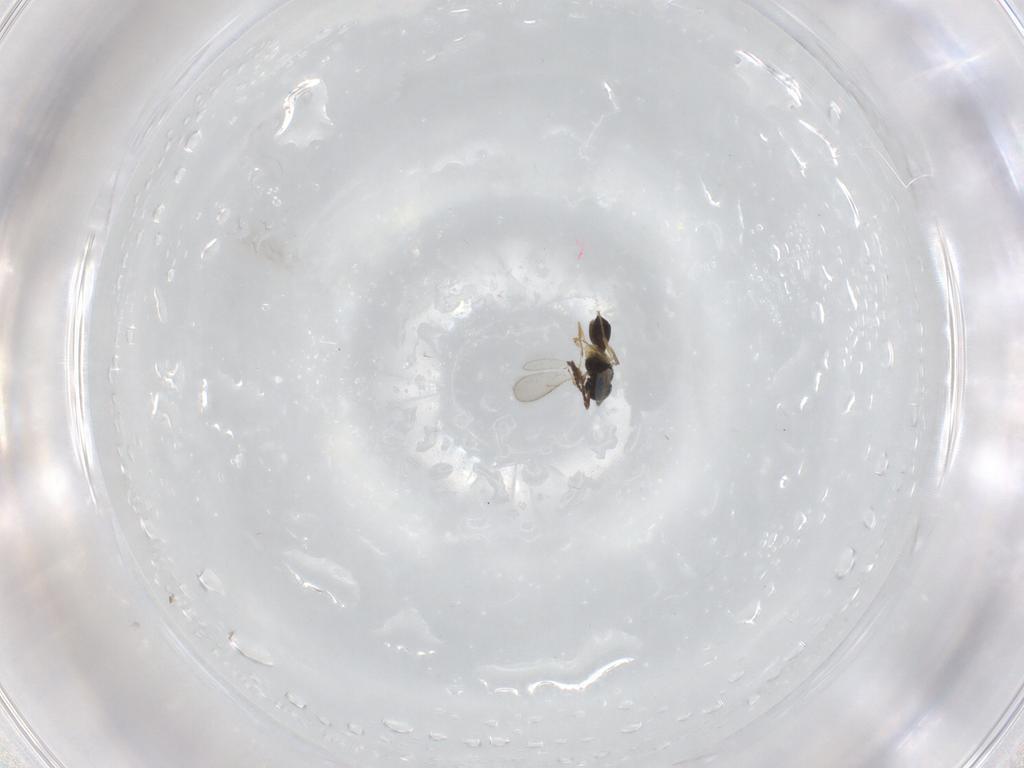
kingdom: Animalia
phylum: Arthropoda
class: Insecta
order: Hymenoptera
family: Scelionidae
